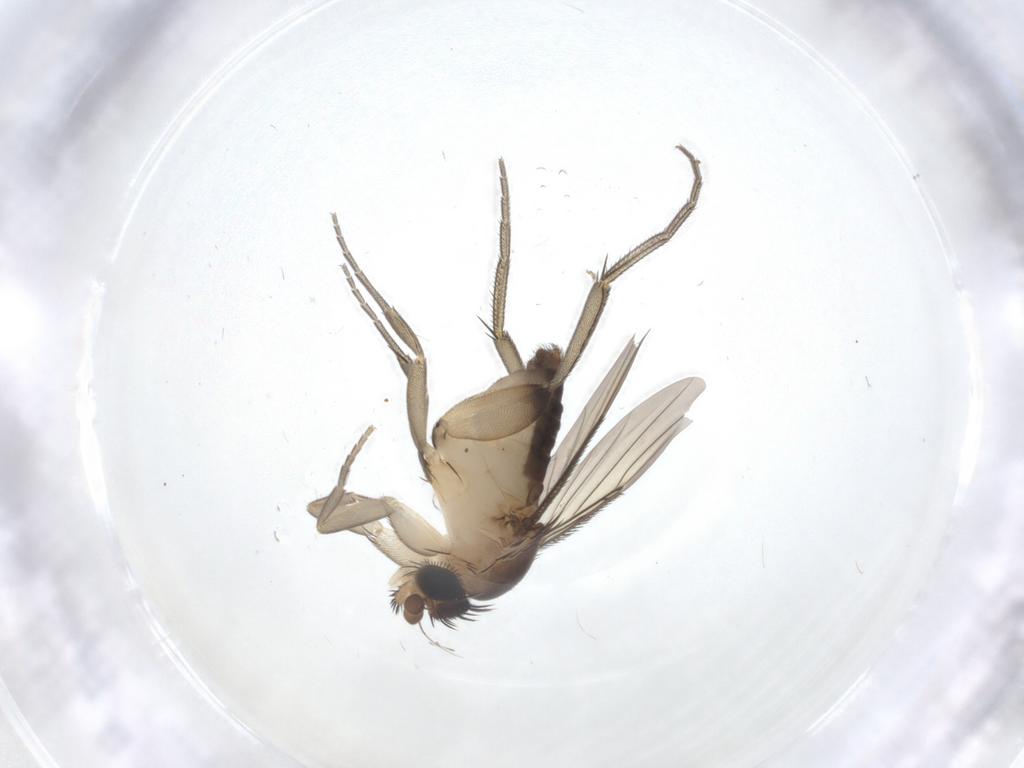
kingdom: Animalia
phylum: Arthropoda
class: Insecta
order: Diptera
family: Phoridae
